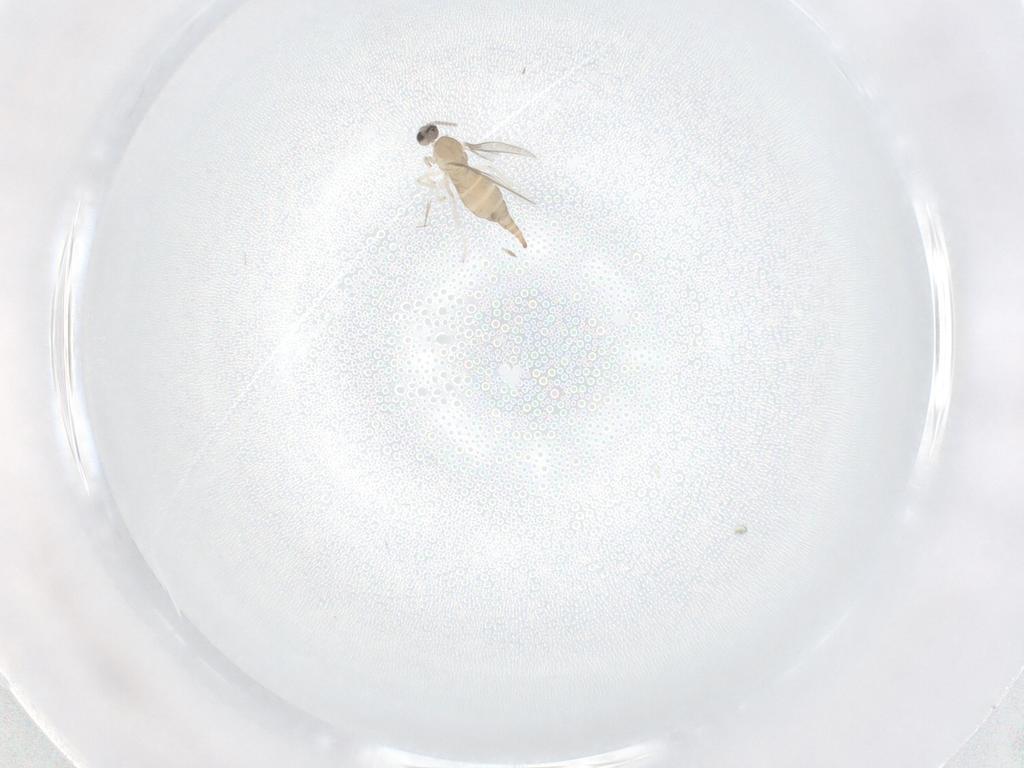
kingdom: Animalia
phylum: Arthropoda
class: Insecta
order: Diptera
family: Cecidomyiidae
